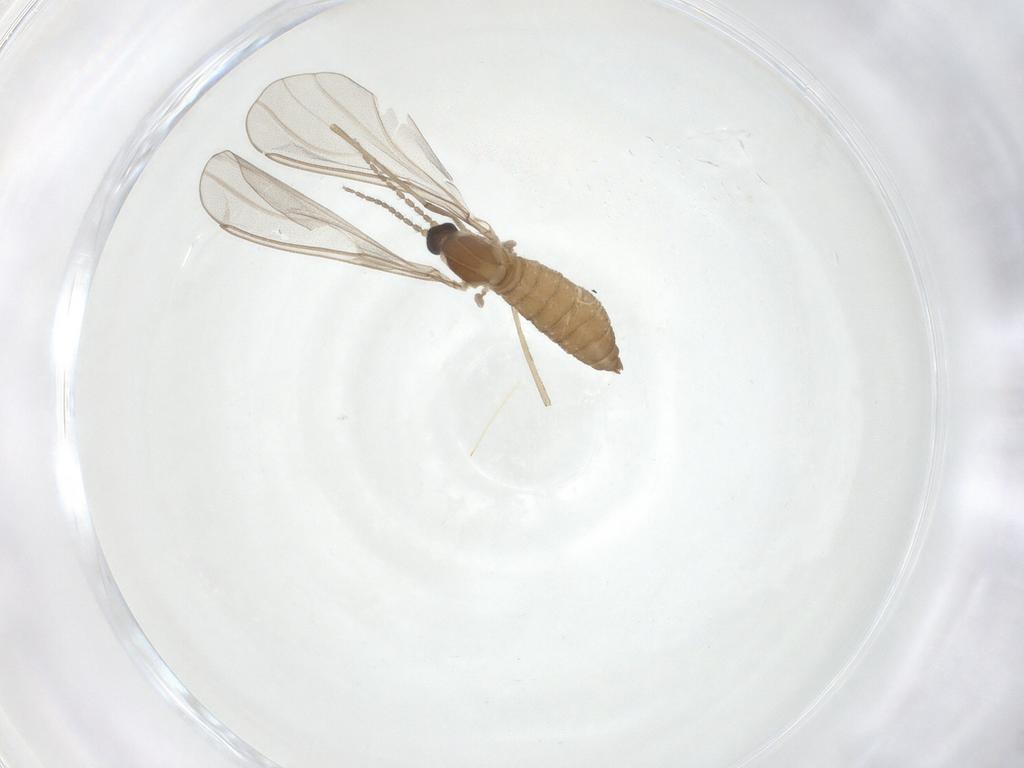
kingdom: Animalia
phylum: Arthropoda
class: Insecta
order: Diptera
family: Cecidomyiidae
